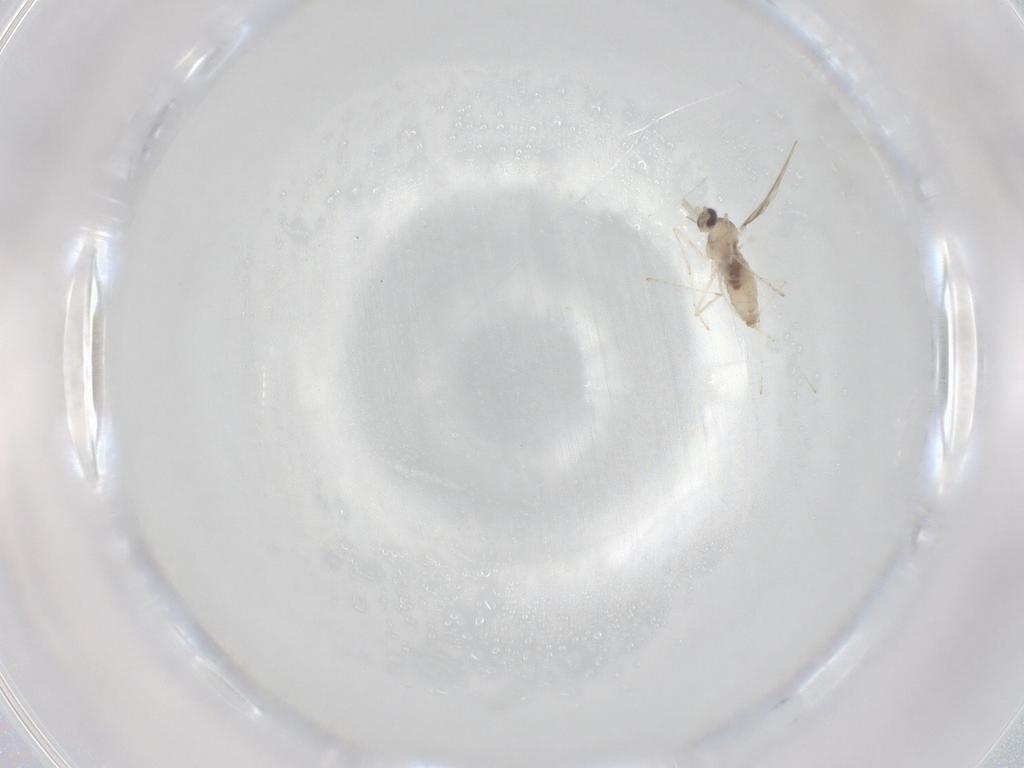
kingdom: Animalia
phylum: Arthropoda
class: Insecta
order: Diptera
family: Cecidomyiidae
